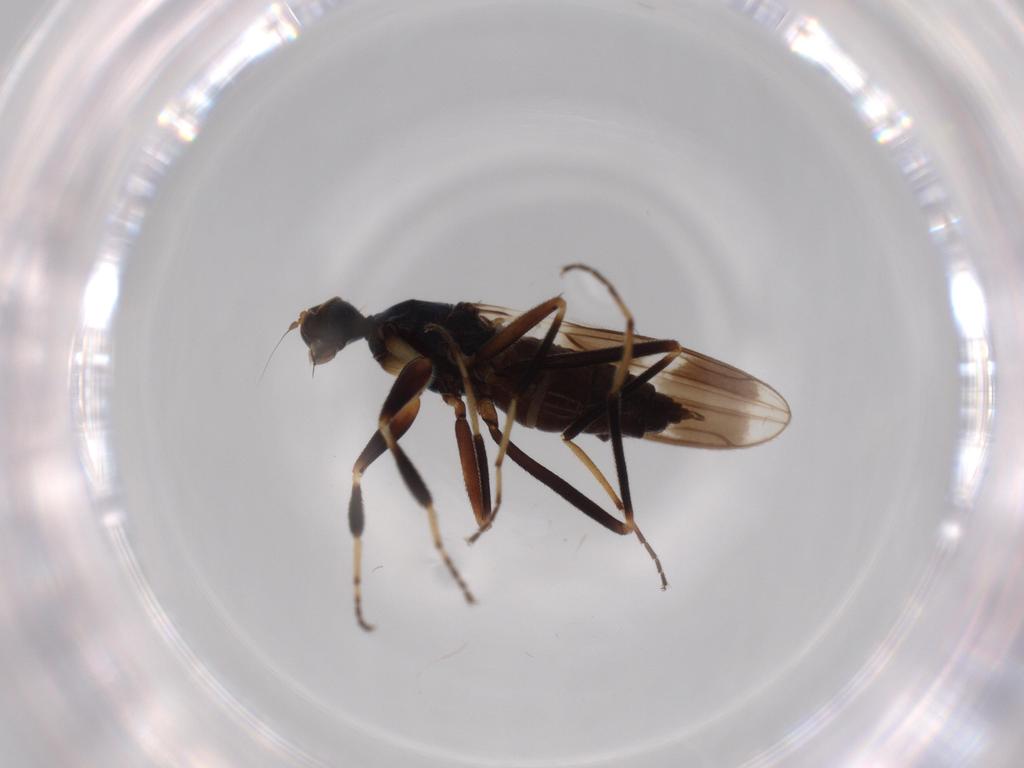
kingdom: Animalia
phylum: Arthropoda
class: Insecta
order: Diptera
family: Hybotidae
